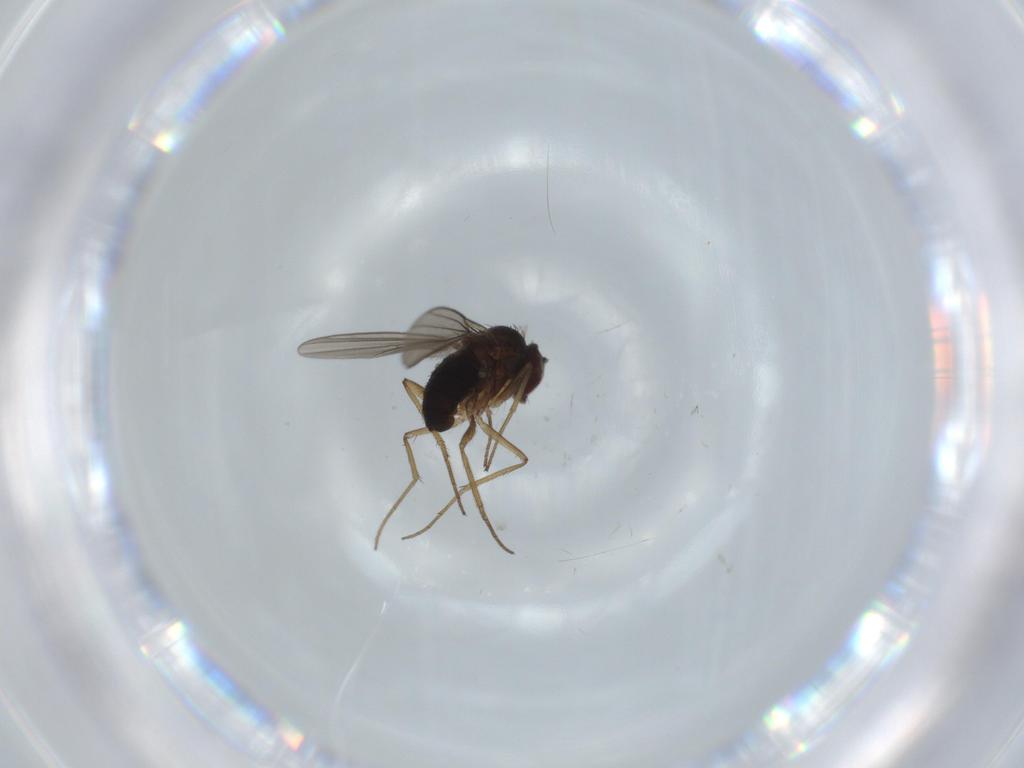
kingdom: Animalia
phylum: Arthropoda
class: Insecta
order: Diptera
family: Dolichopodidae
